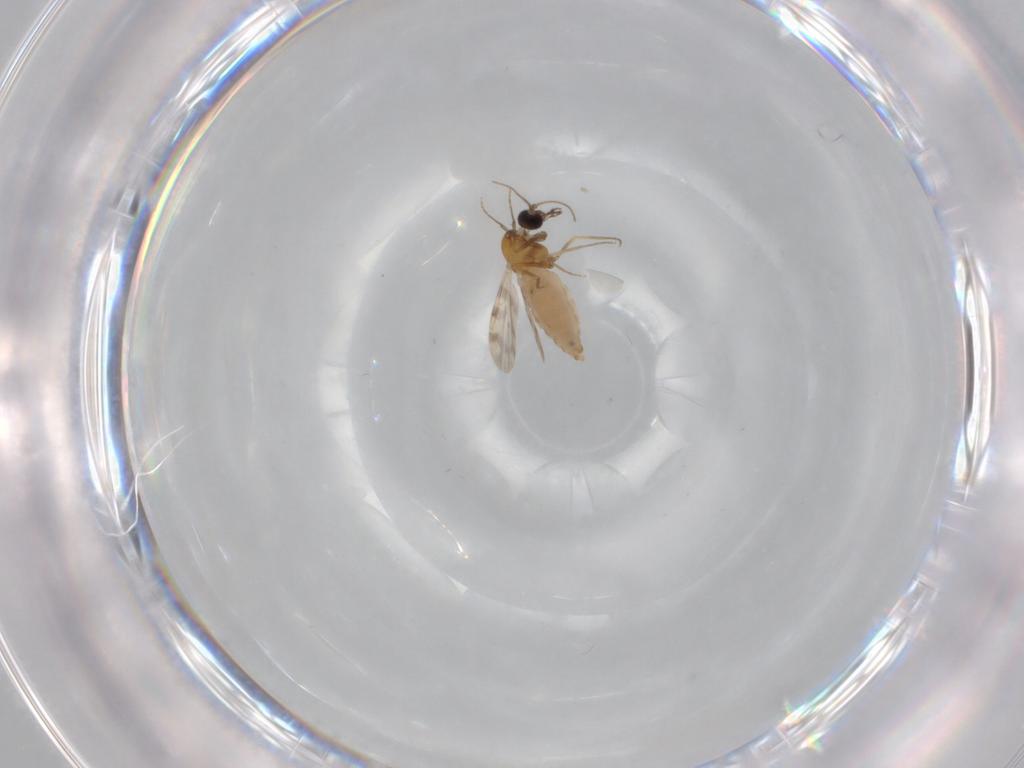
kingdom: Animalia
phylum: Arthropoda
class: Insecta
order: Diptera
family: Ceratopogonidae
